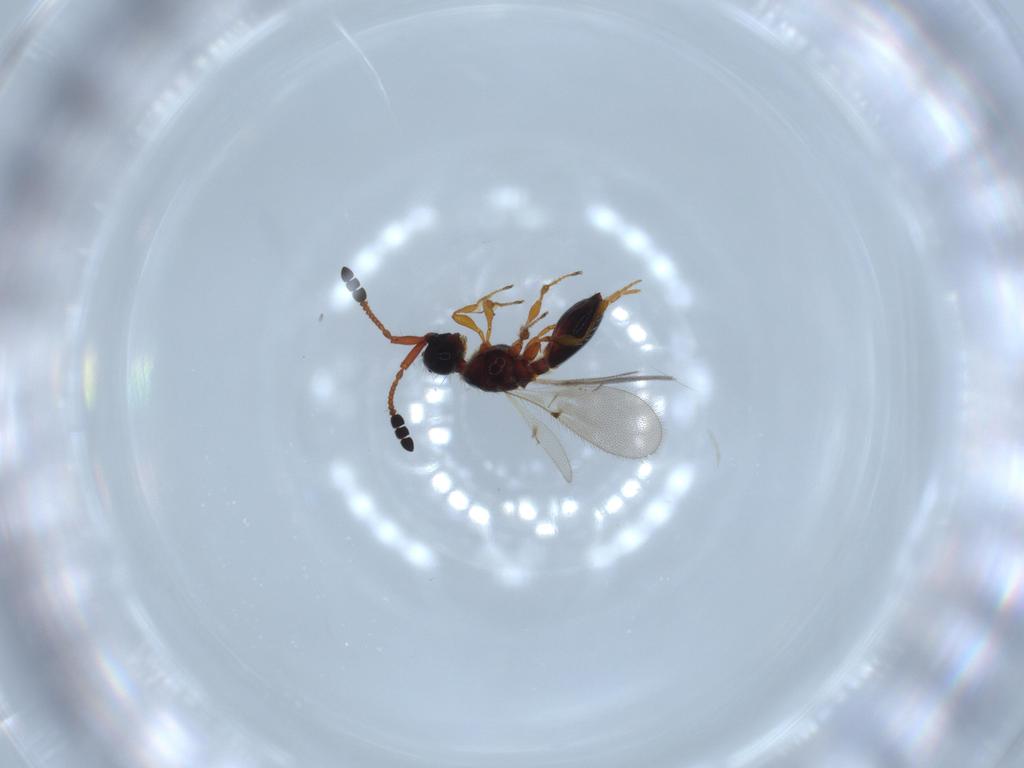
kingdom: Animalia
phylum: Arthropoda
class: Insecta
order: Hymenoptera
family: Diapriidae
